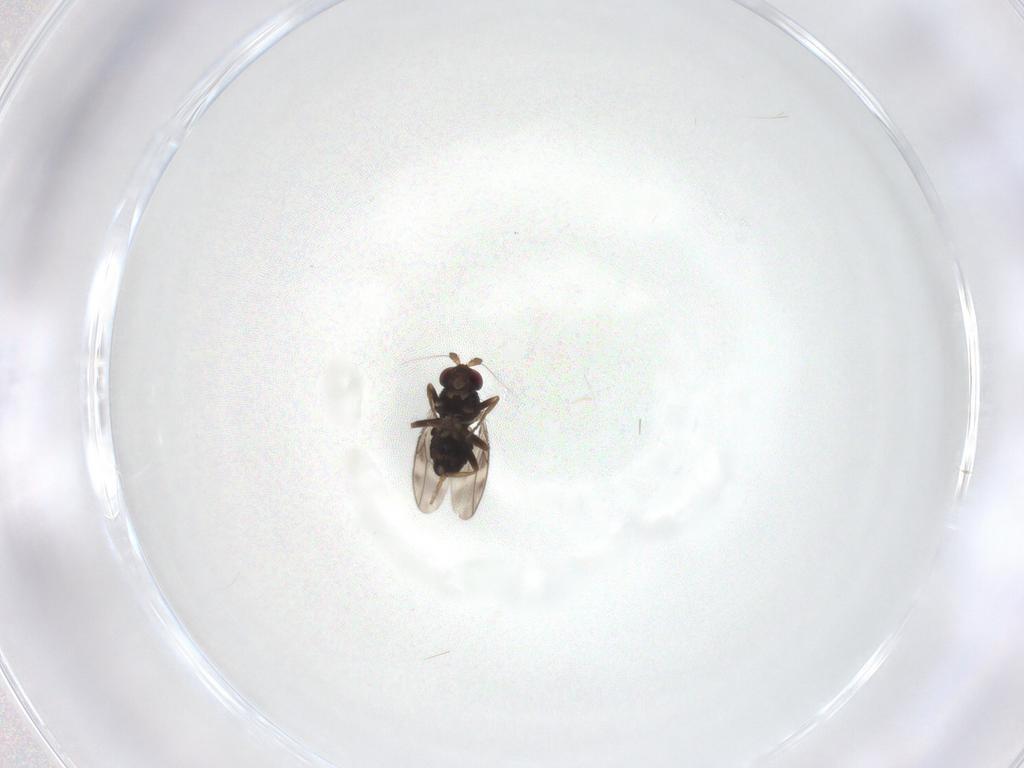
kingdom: Animalia
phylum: Arthropoda
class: Insecta
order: Diptera
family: Sphaeroceridae
